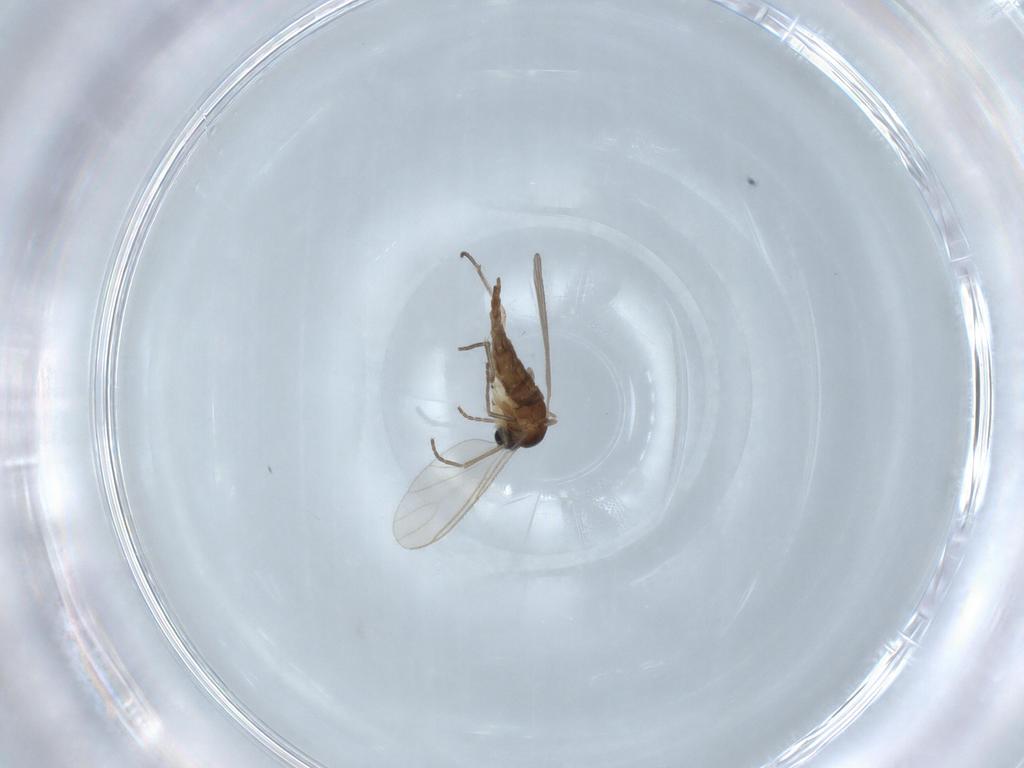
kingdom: Animalia
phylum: Arthropoda
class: Insecta
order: Diptera
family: Sciaridae
